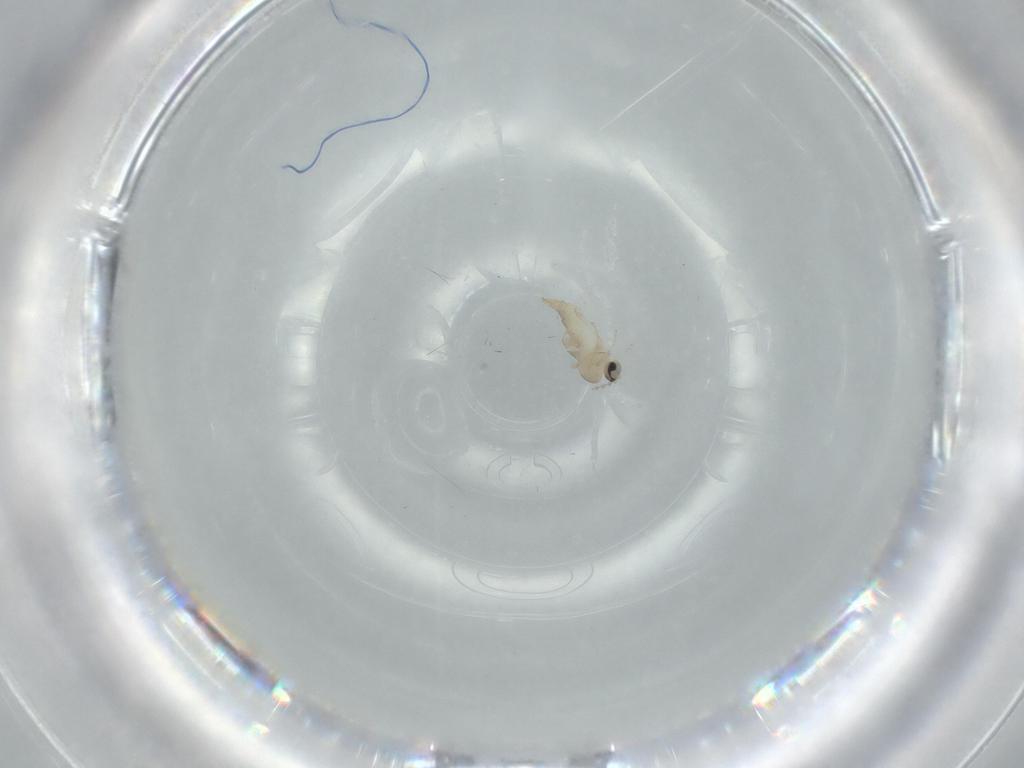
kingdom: Animalia
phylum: Arthropoda
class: Insecta
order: Diptera
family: Cecidomyiidae
